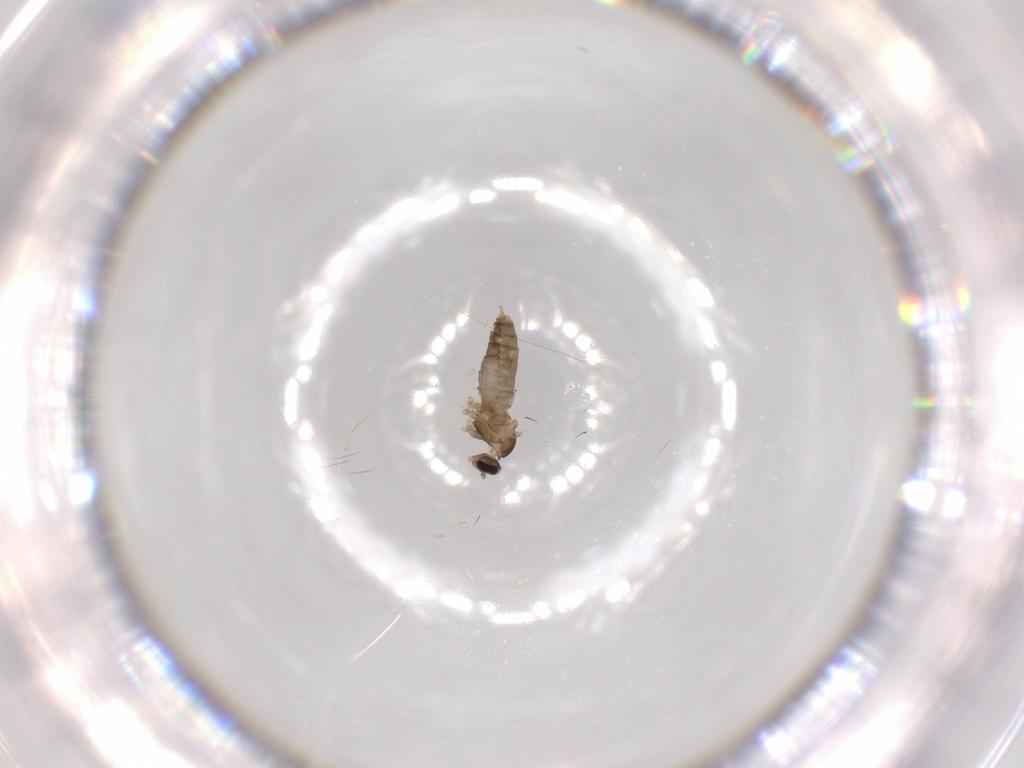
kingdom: Animalia
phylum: Arthropoda
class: Insecta
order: Diptera
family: Cecidomyiidae
